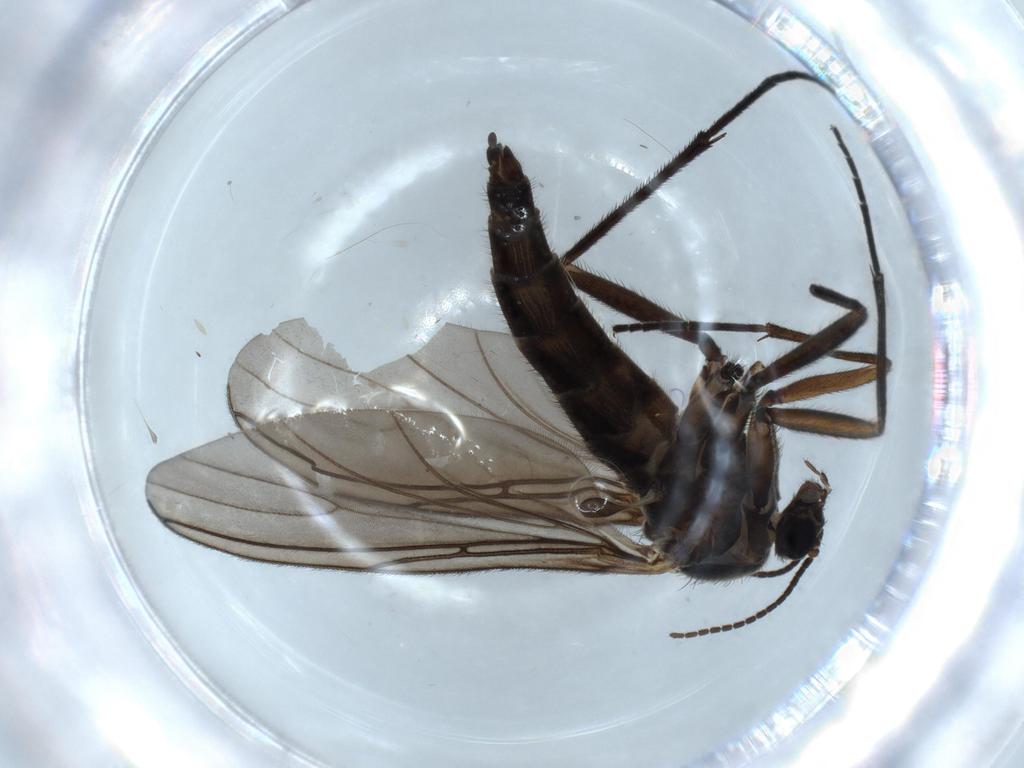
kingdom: Animalia
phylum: Arthropoda
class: Insecta
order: Diptera
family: Sciaridae
